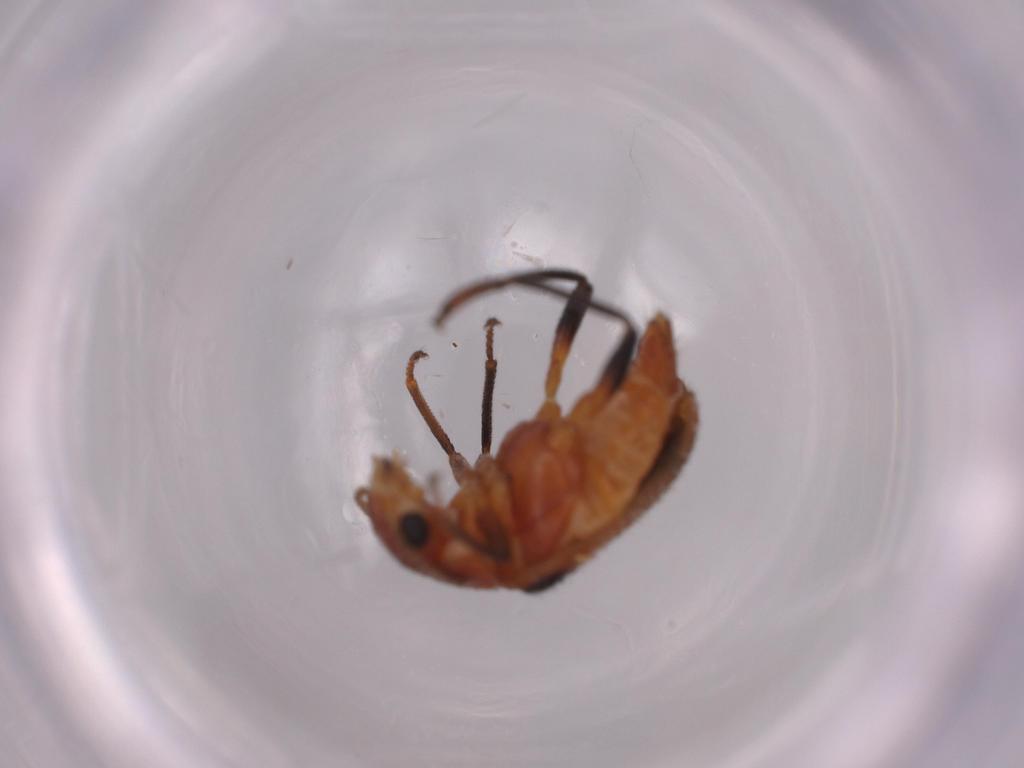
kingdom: Animalia
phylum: Arthropoda
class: Insecta
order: Coleoptera
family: Melyridae
